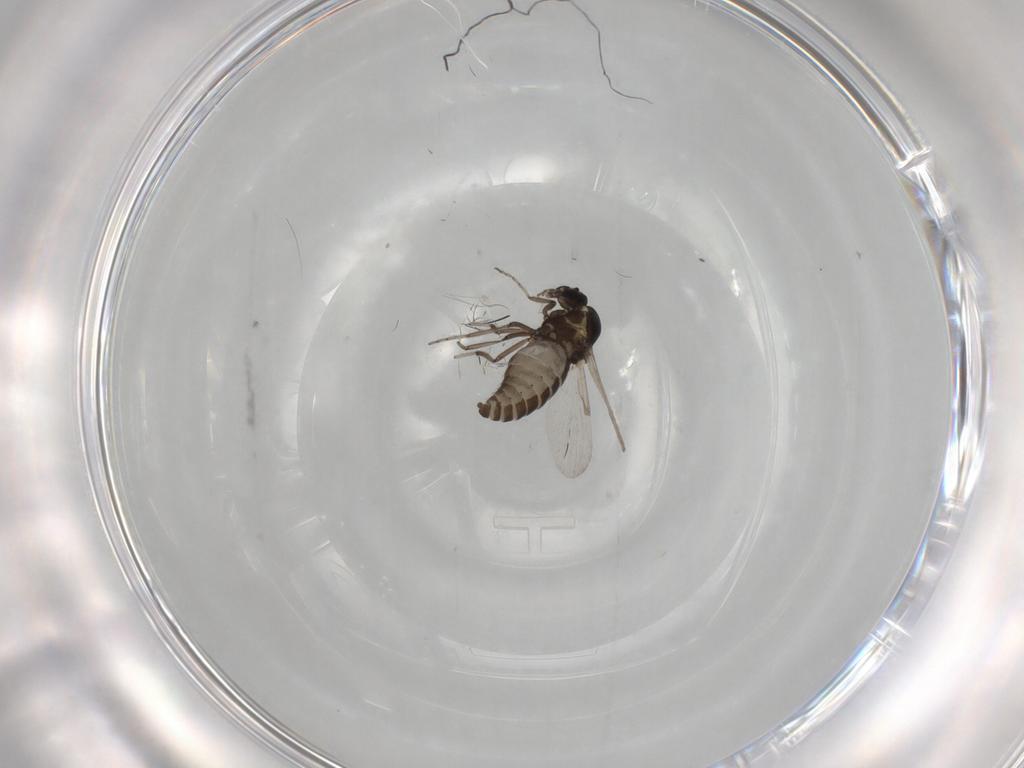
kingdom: Animalia
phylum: Arthropoda
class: Insecta
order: Diptera
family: Ceratopogonidae
